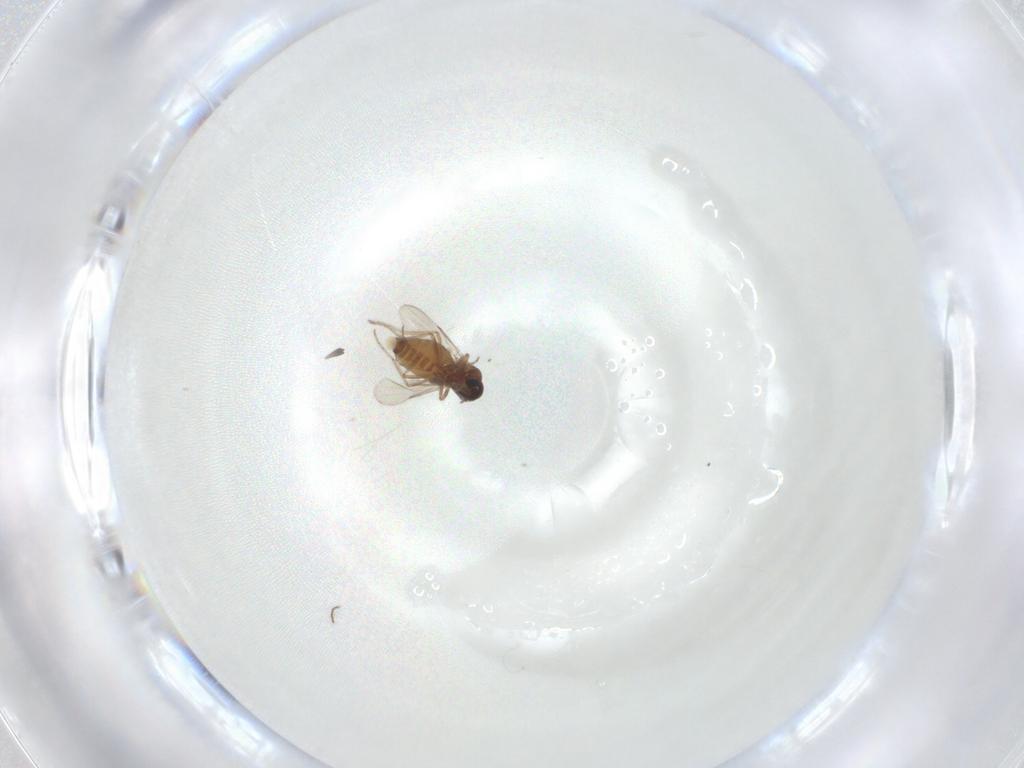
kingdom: Animalia
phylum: Arthropoda
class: Insecta
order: Diptera
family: Ceratopogonidae
